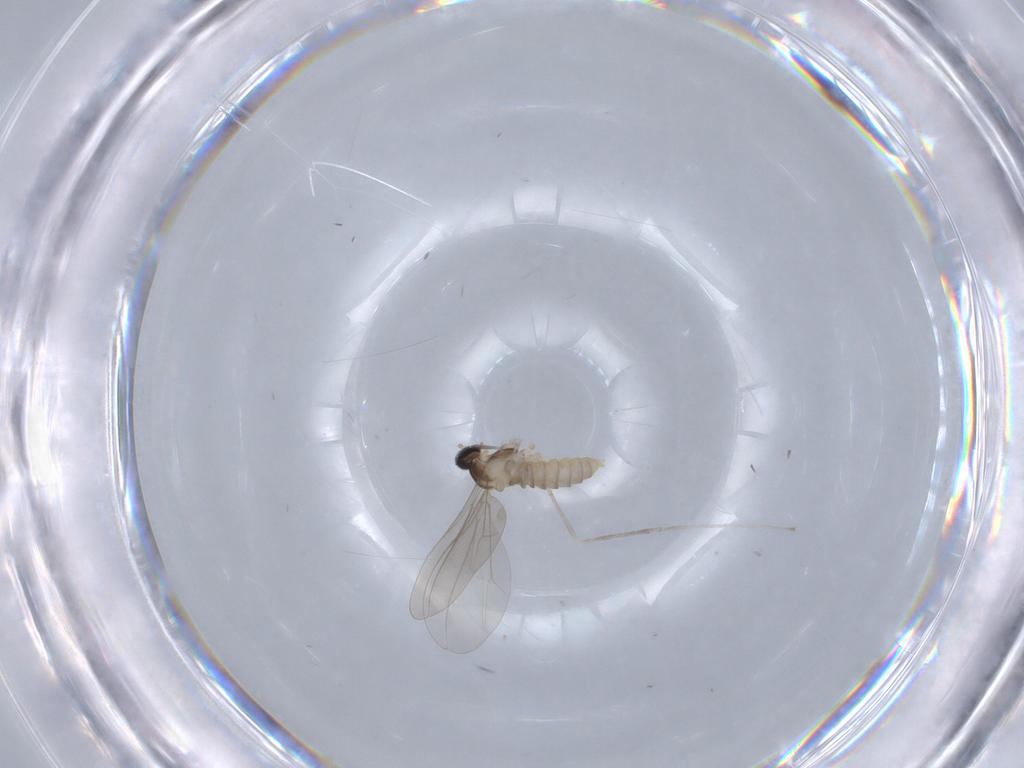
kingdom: Animalia
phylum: Arthropoda
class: Insecta
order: Diptera
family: Cecidomyiidae
